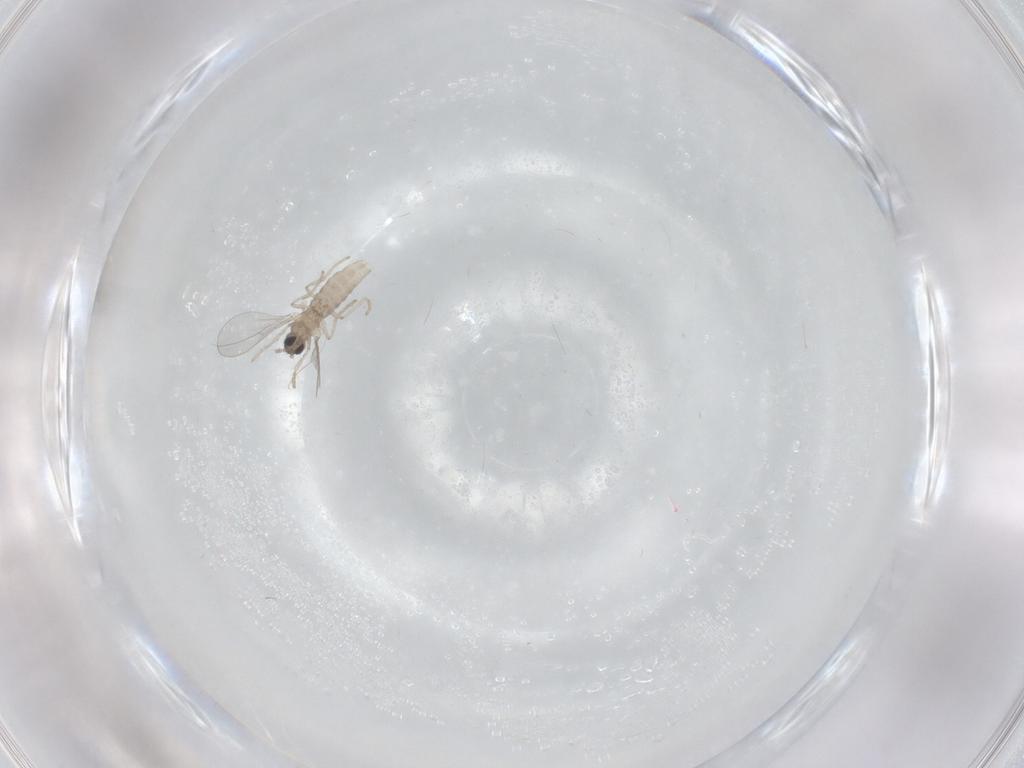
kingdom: Animalia
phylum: Arthropoda
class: Insecta
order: Diptera
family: Cecidomyiidae
